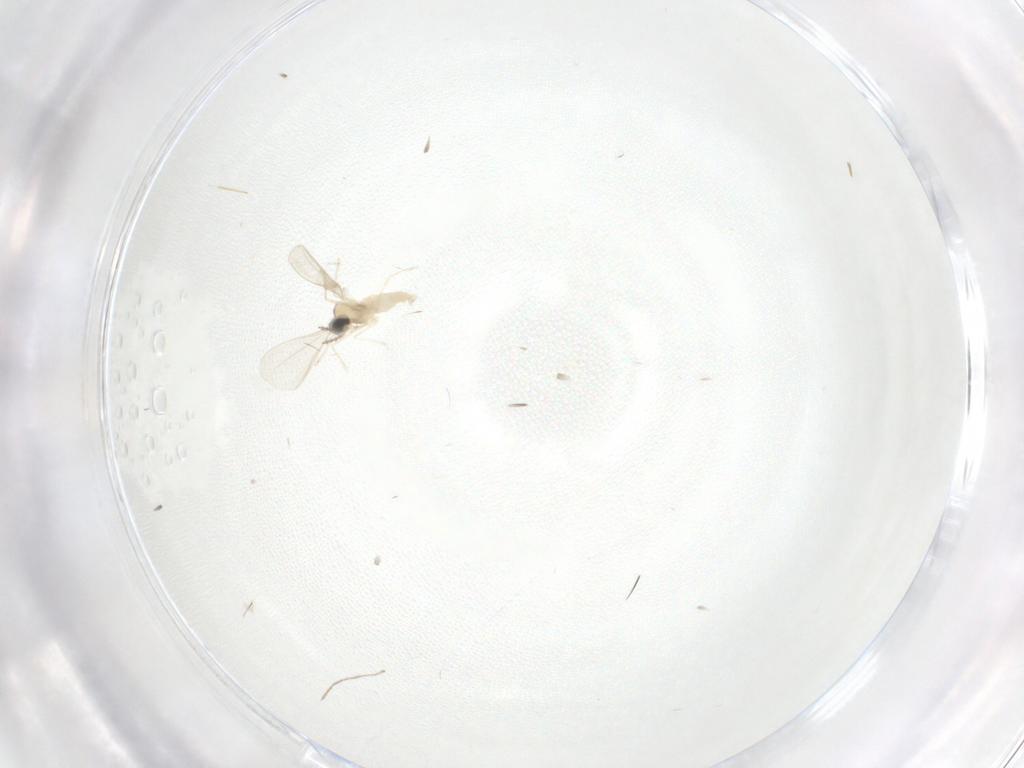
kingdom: Animalia
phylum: Arthropoda
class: Insecta
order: Diptera
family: Cecidomyiidae
